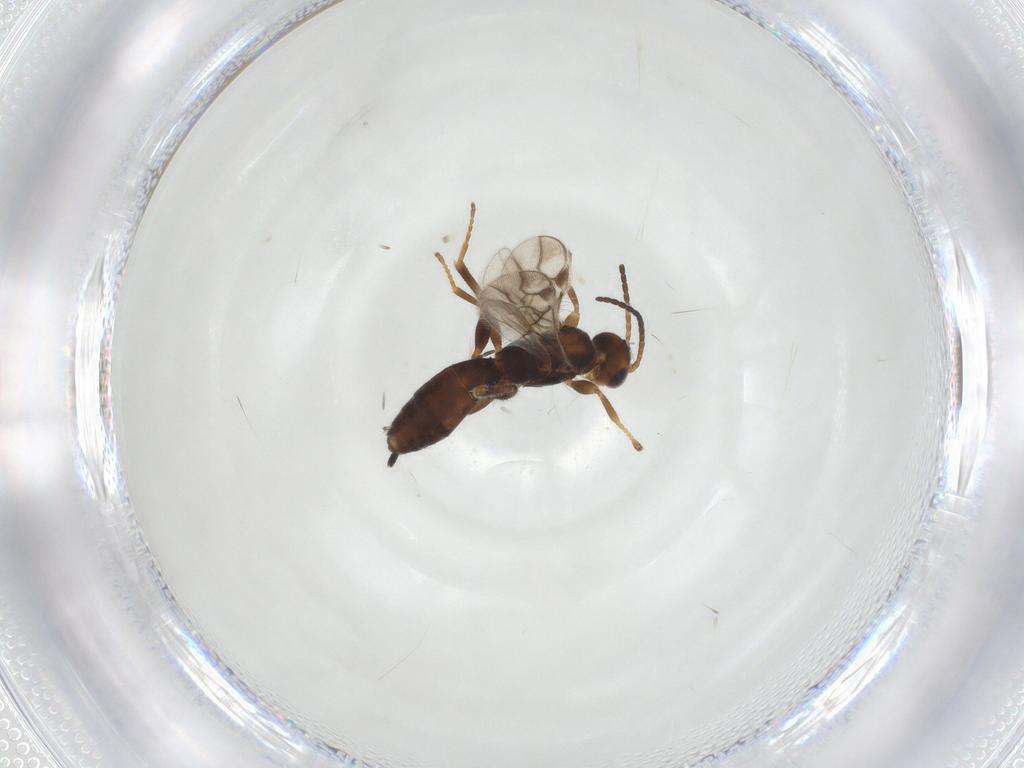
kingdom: Animalia
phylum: Arthropoda
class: Insecta
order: Hymenoptera
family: Braconidae
